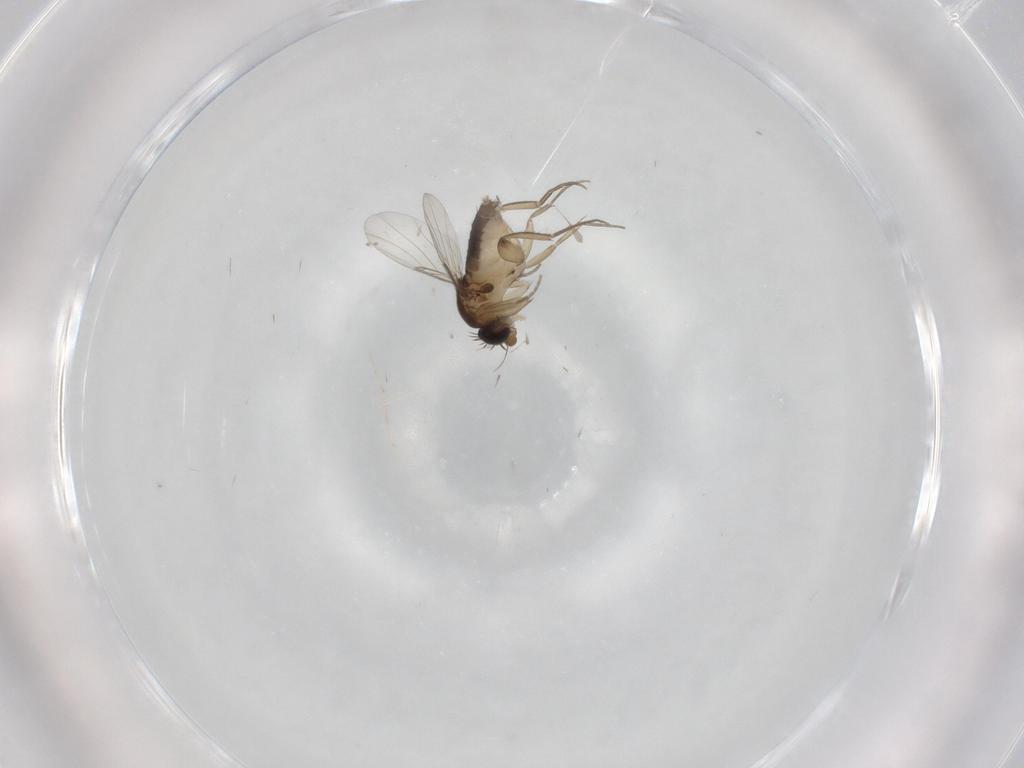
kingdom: Animalia
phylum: Arthropoda
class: Insecta
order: Diptera
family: Phoridae
